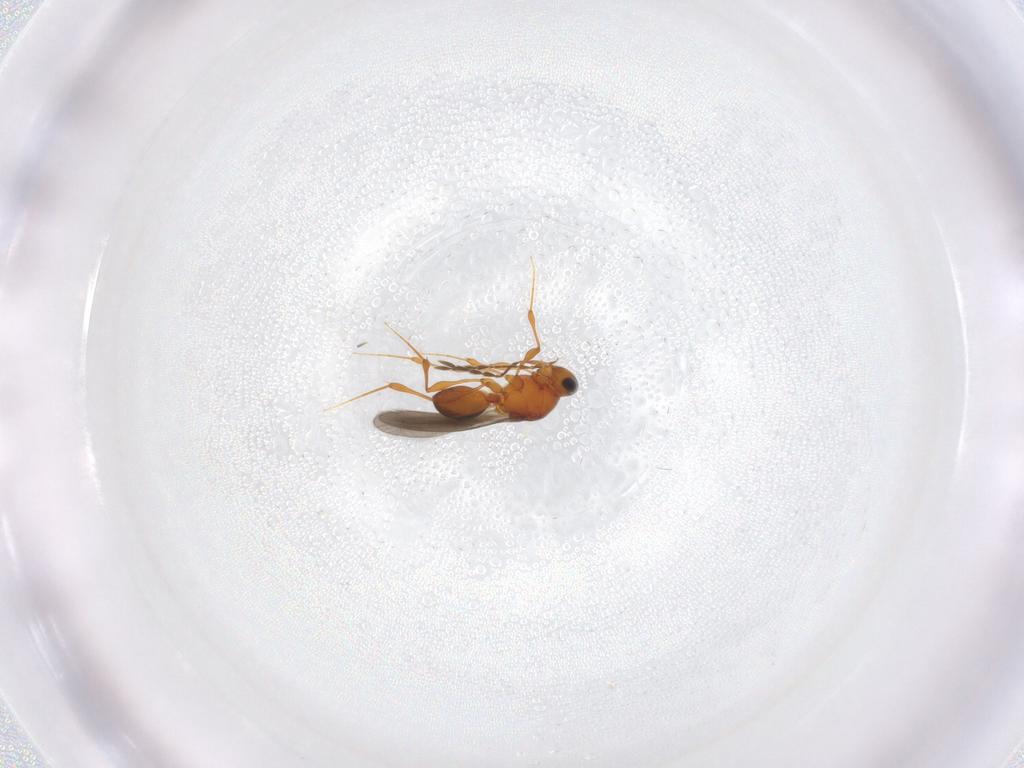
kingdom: Animalia
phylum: Arthropoda
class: Insecta
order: Hymenoptera
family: Platygastridae
